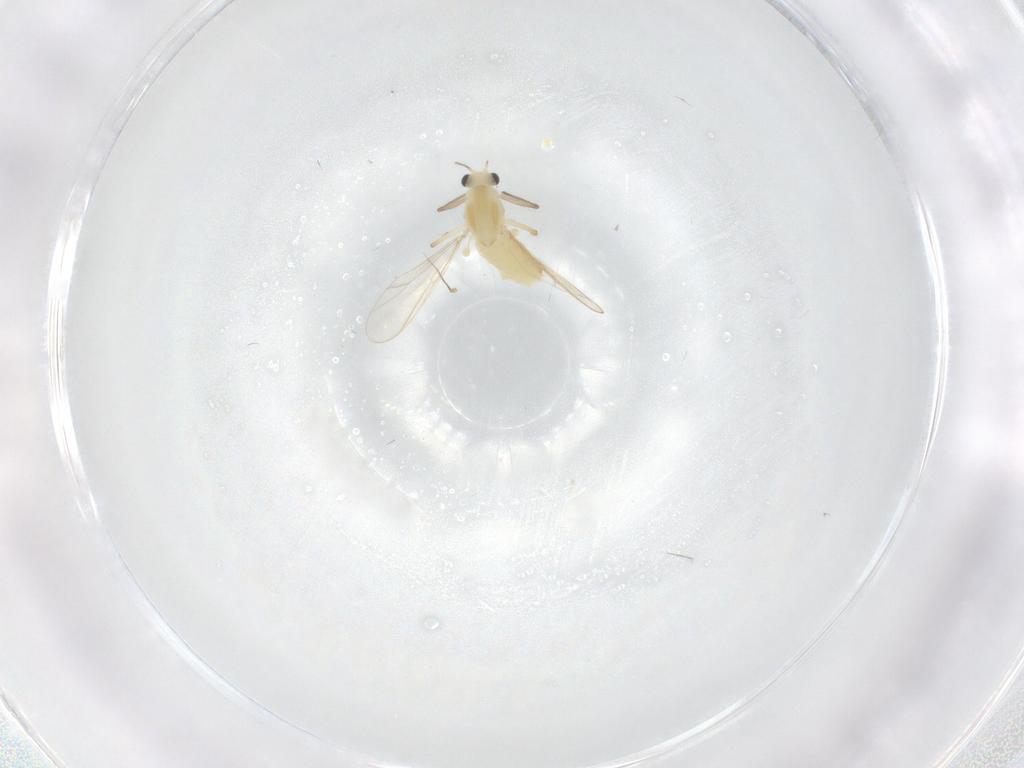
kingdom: Animalia
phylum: Arthropoda
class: Insecta
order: Diptera
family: Chironomidae
